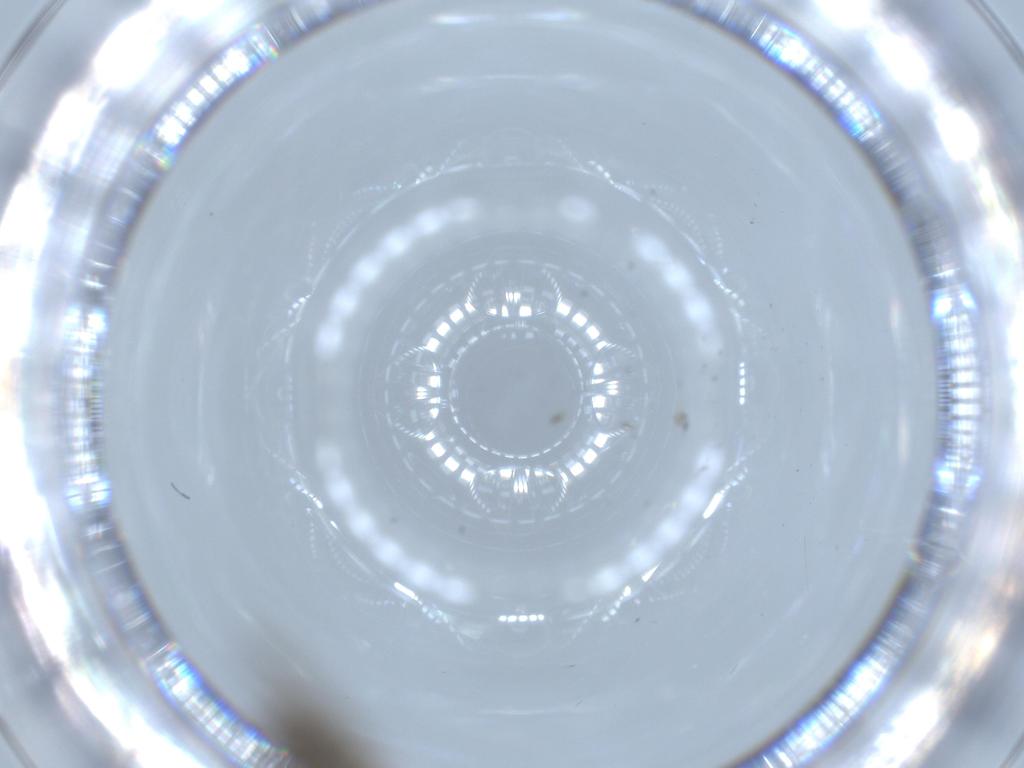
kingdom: Animalia
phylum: Arthropoda
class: Insecta
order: Diptera
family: Psychodidae
